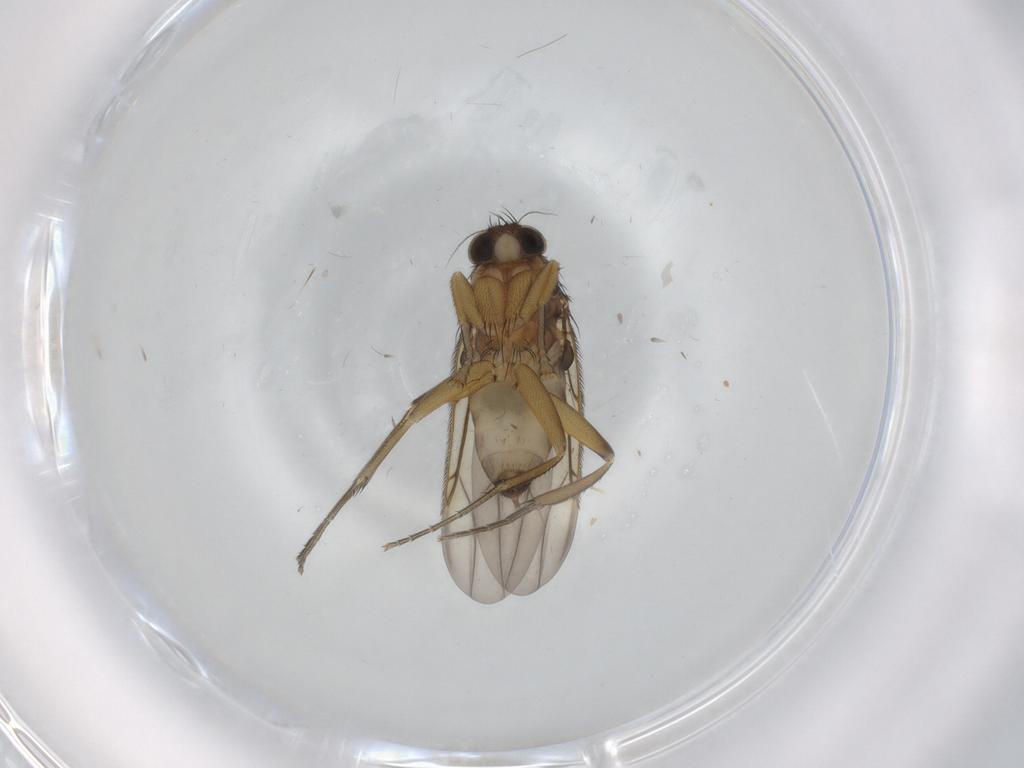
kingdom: Animalia
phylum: Arthropoda
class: Insecta
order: Diptera
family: Phoridae
